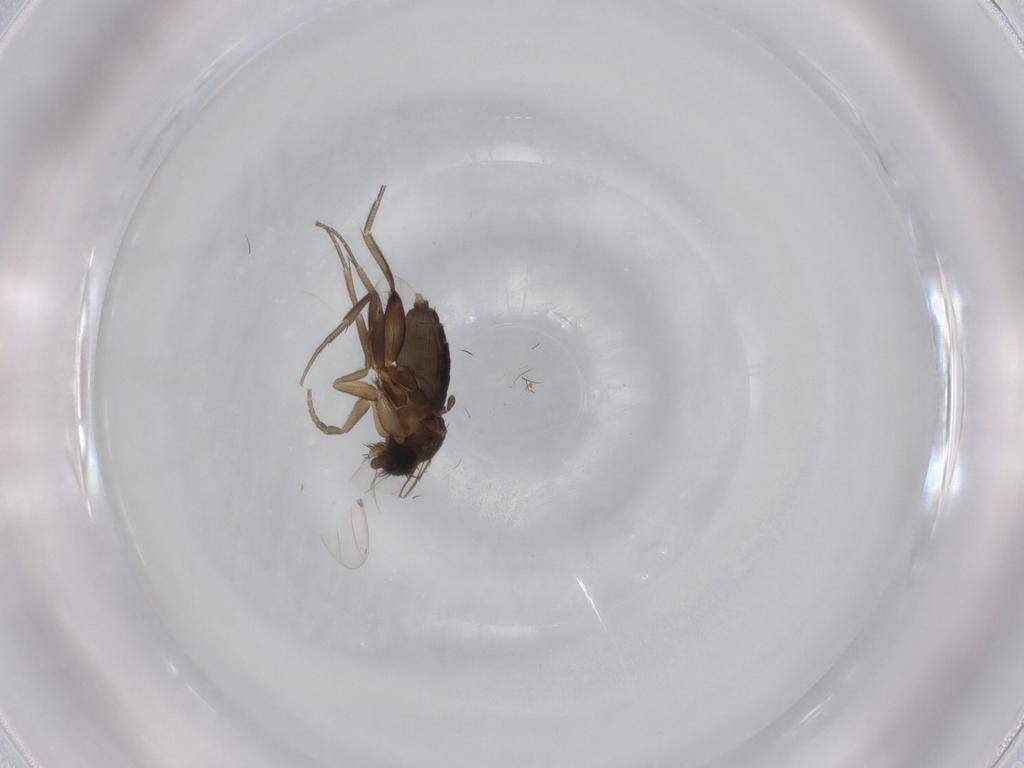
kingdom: Animalia
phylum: Arthropoda
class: Insecta
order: Diptera
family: Phoridae
